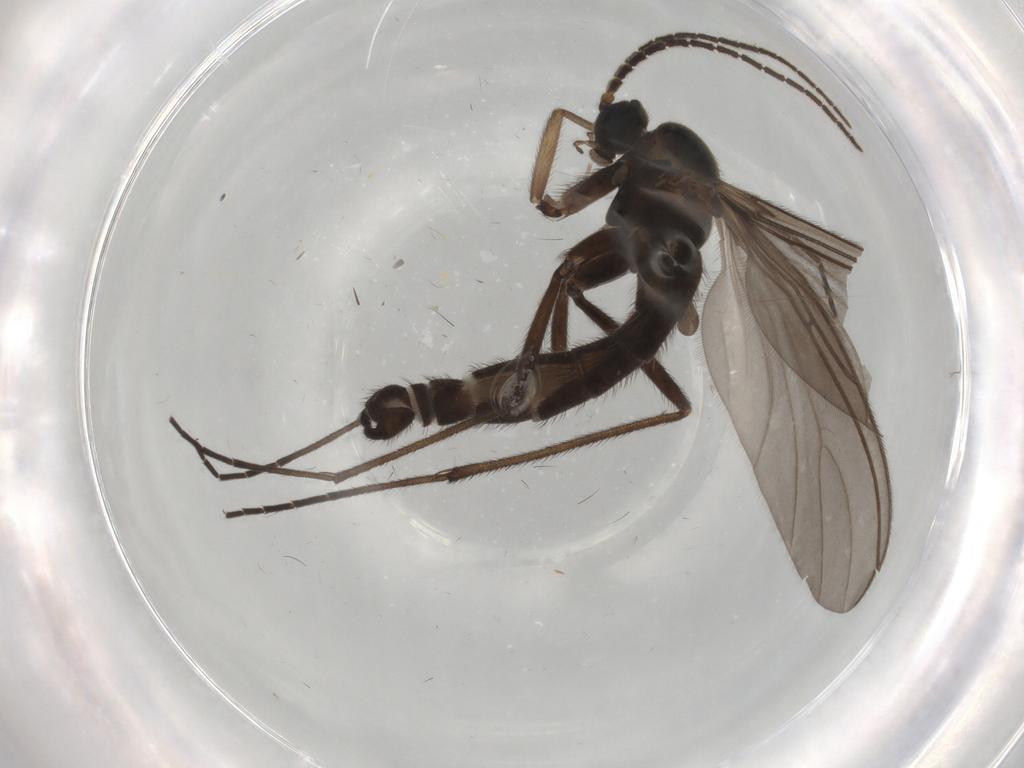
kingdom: Animalia
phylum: Arthropoda
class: Insecta
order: Diptera
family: Sciaridae
